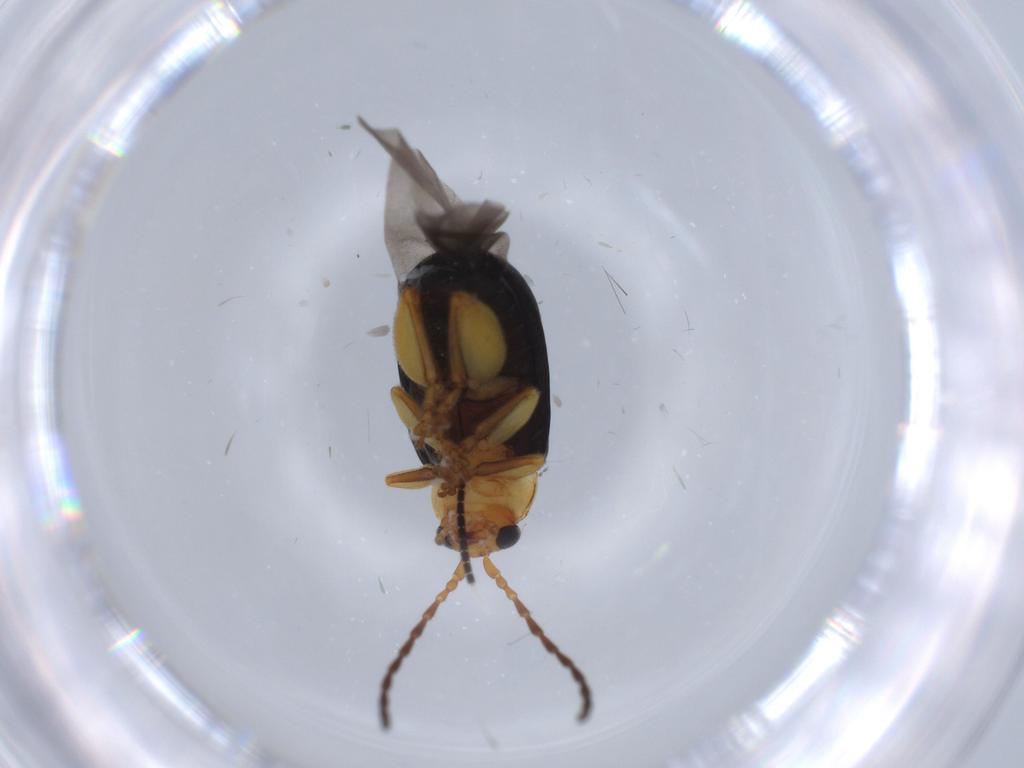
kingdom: Animalia
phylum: Arthropoda
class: Insecta
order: Coleoptera
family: Chrysomelidae
